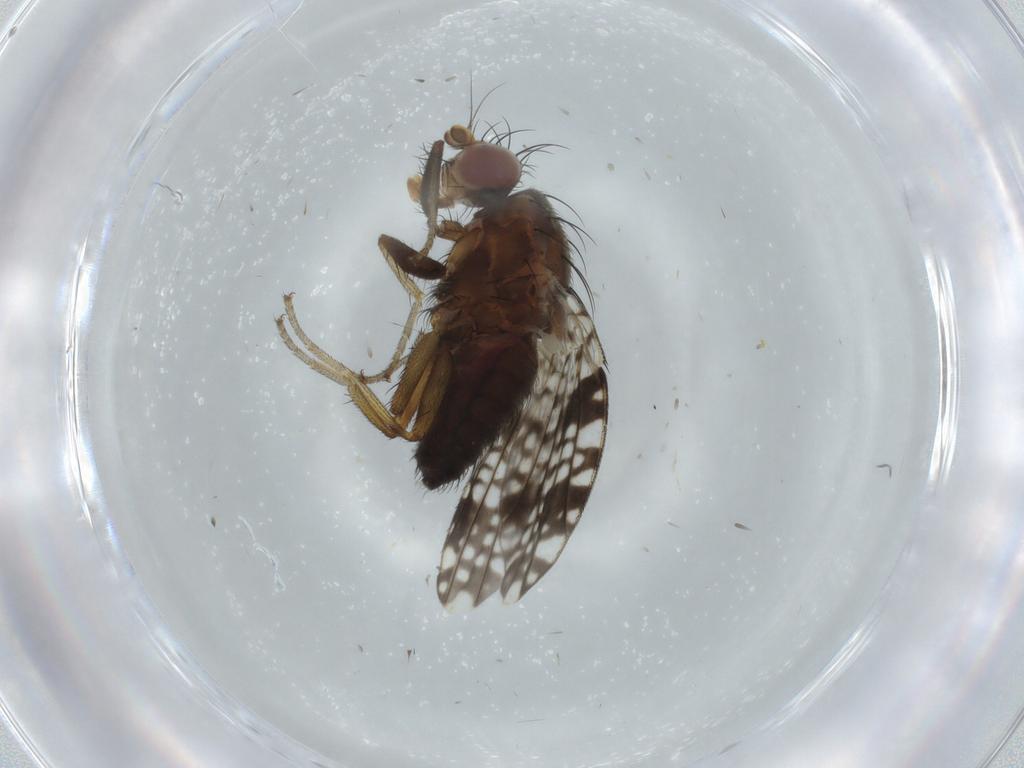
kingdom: Animalia
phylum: Arthropoda
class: Insecta
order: Diptera
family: Tephritidae
